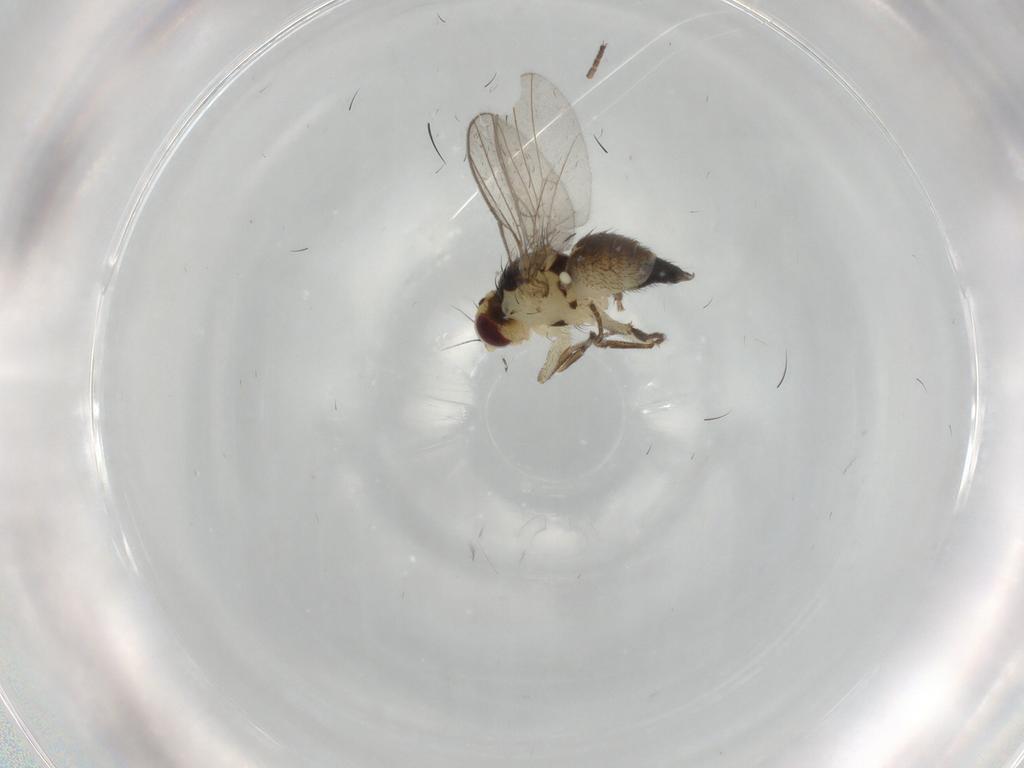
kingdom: Animalia
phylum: Arthropoda
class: Insecta
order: Diptera
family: Agromyzidae
